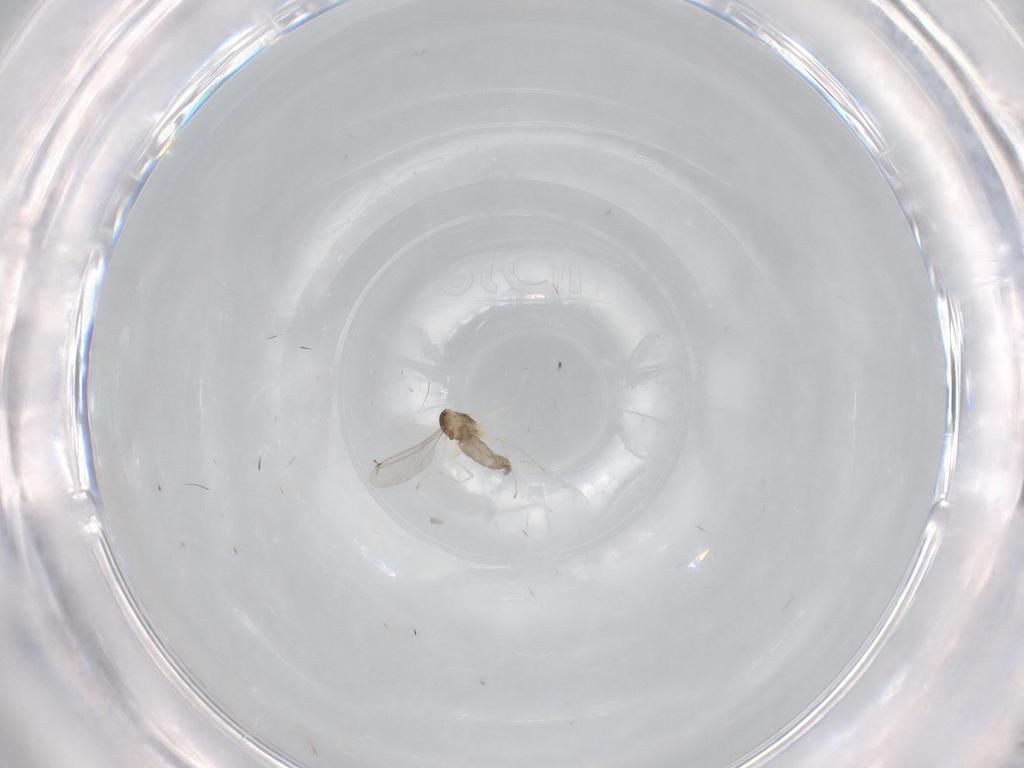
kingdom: Animalia
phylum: Arthropoda
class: Insecta
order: Diptera
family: Cecidomyiidae
